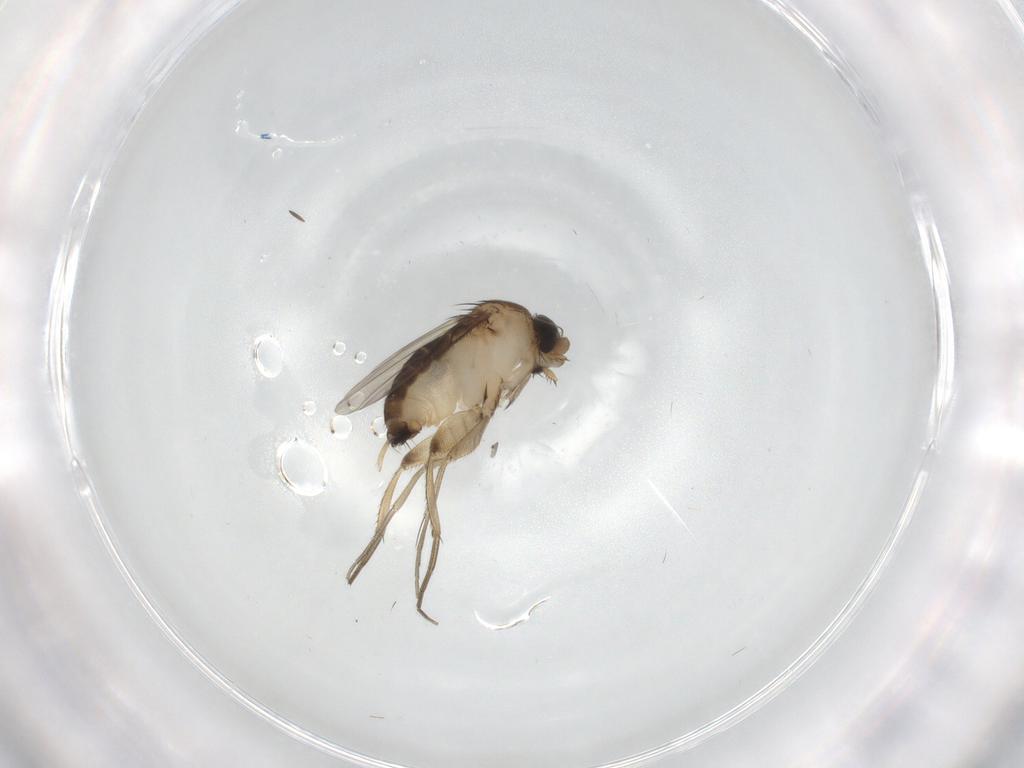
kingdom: Animalia
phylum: Arthropoda
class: Insecta
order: Diptera
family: Phoridae
